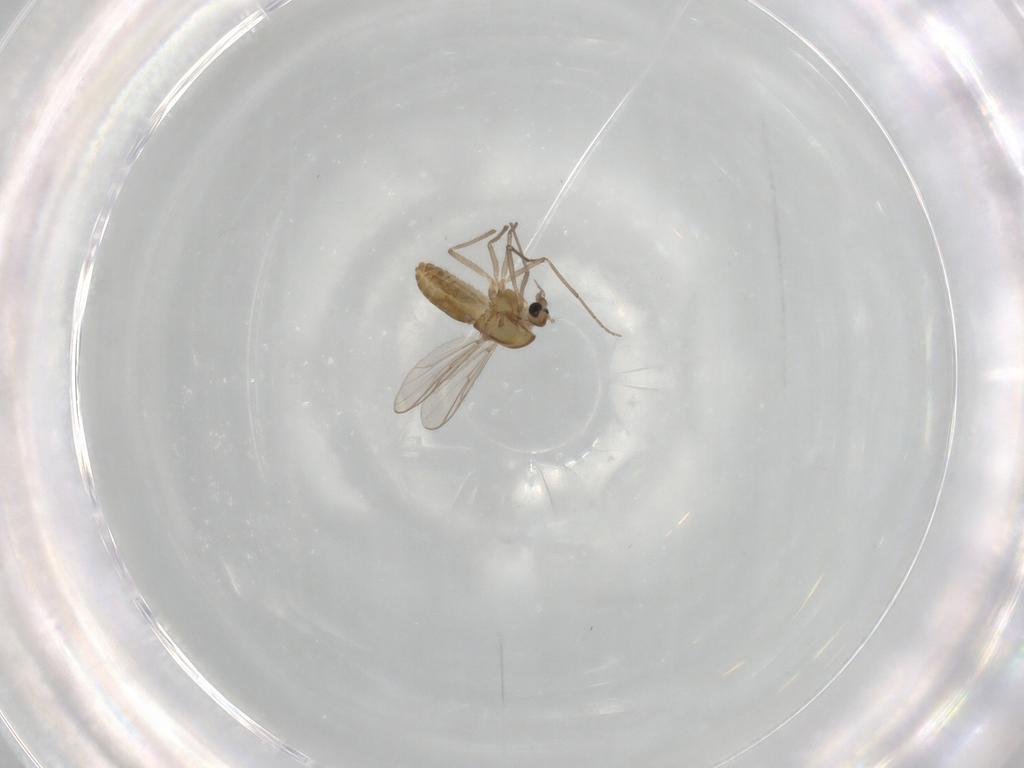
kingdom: Animalia
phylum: Arthropoda
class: Insecta
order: Diptera
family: Chironomidae
